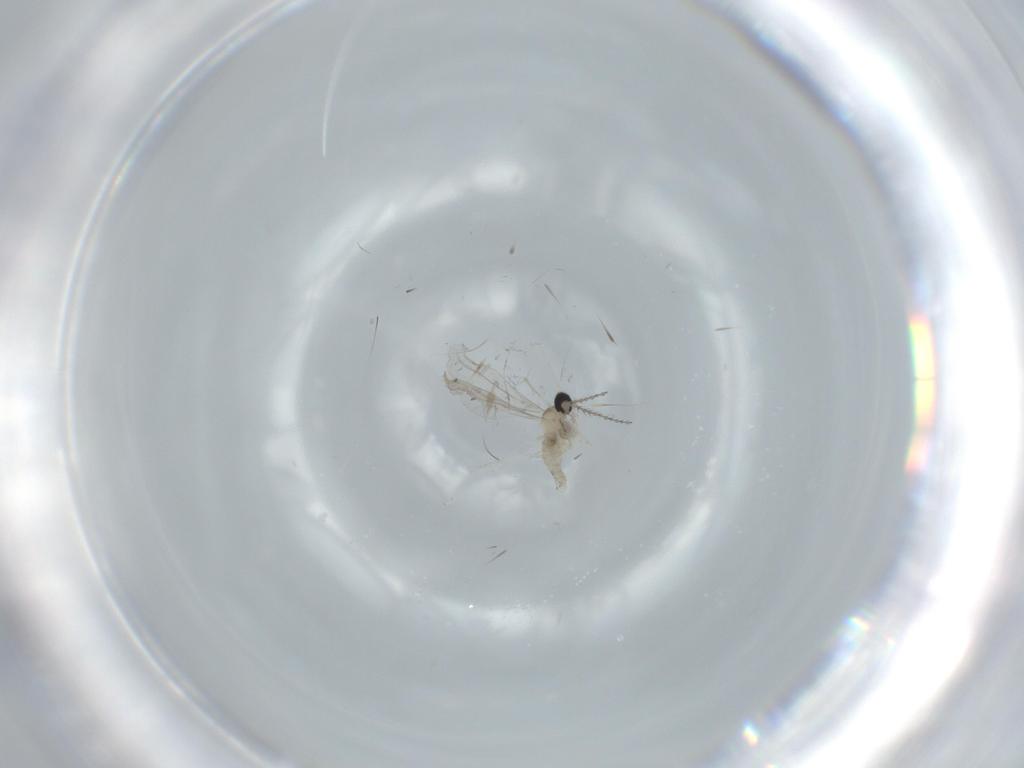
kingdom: Animalia
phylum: Arthropoda
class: Insecta
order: Diptera
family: Cecidomyiidae
